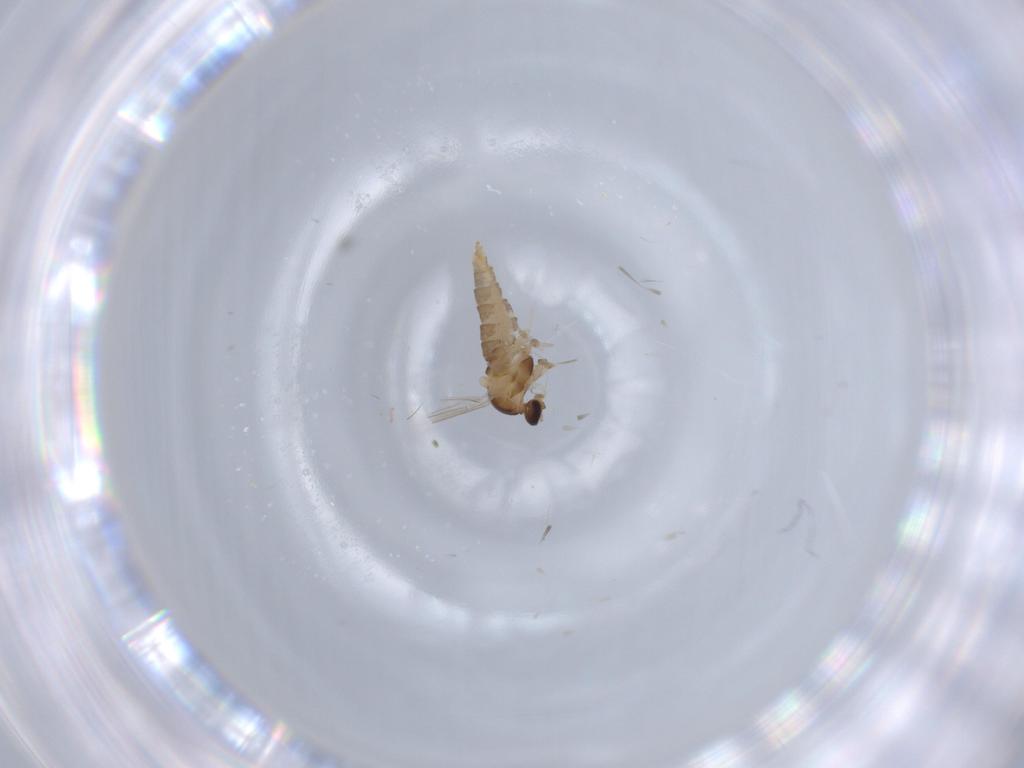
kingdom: Animalia
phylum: Arthropoda
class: Insecta
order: Diptera
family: Cecidomyiidae
